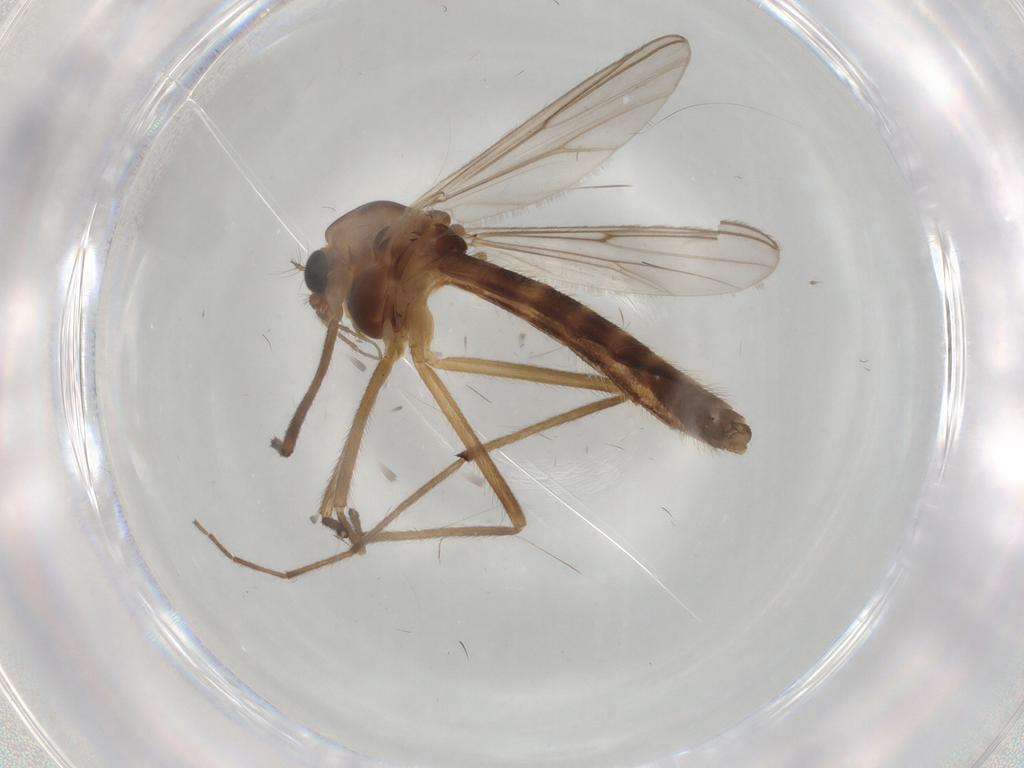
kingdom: Animalia
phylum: Arthropoda
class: Insecta
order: Diptera
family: Chironomidae
